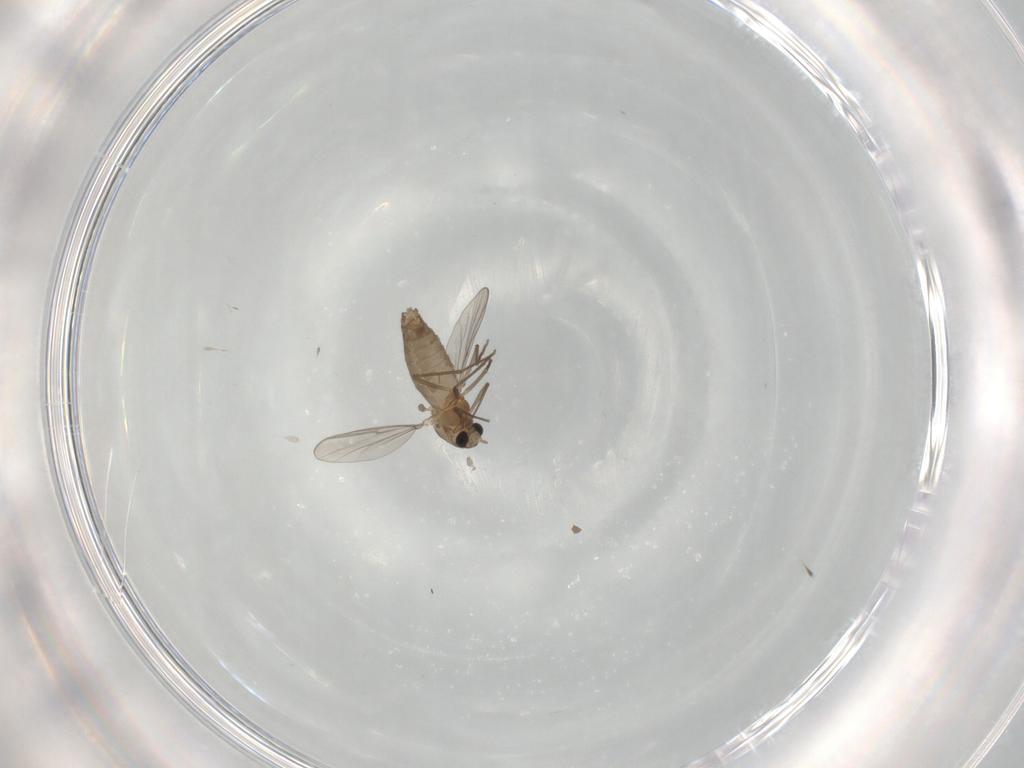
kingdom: Animalia
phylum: Arthropoda
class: Insecta
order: Diptera
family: Chironomidae
